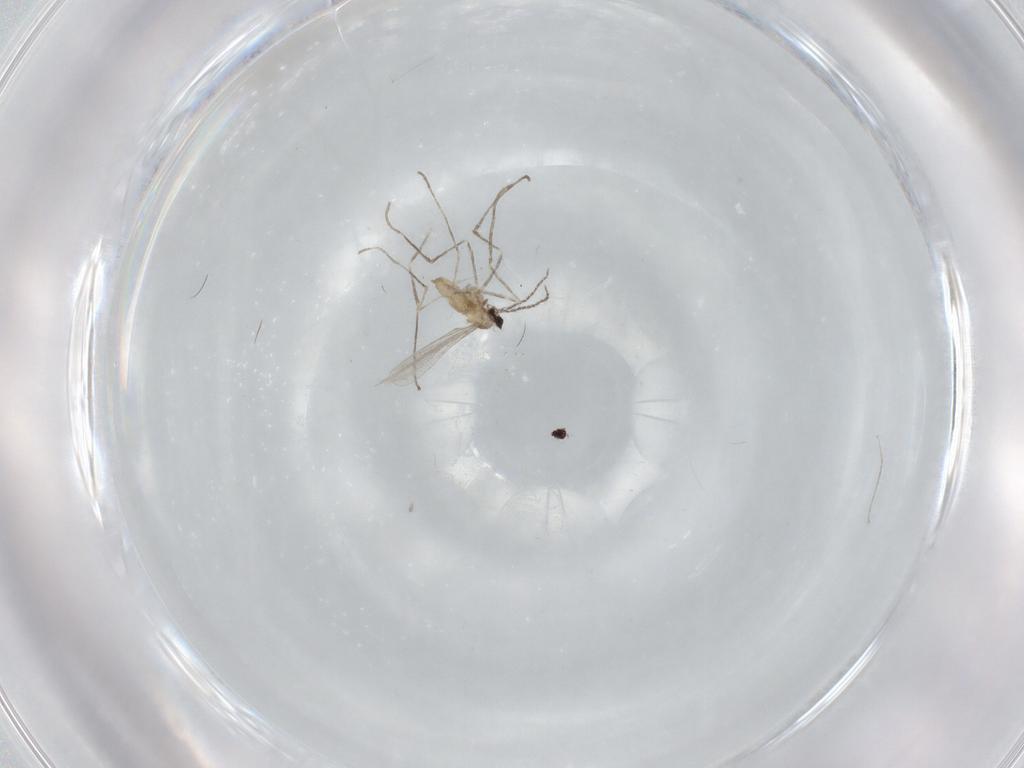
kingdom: Animalia
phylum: Arthropoda
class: Insecta
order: Diptera
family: Cecidomyiidae
